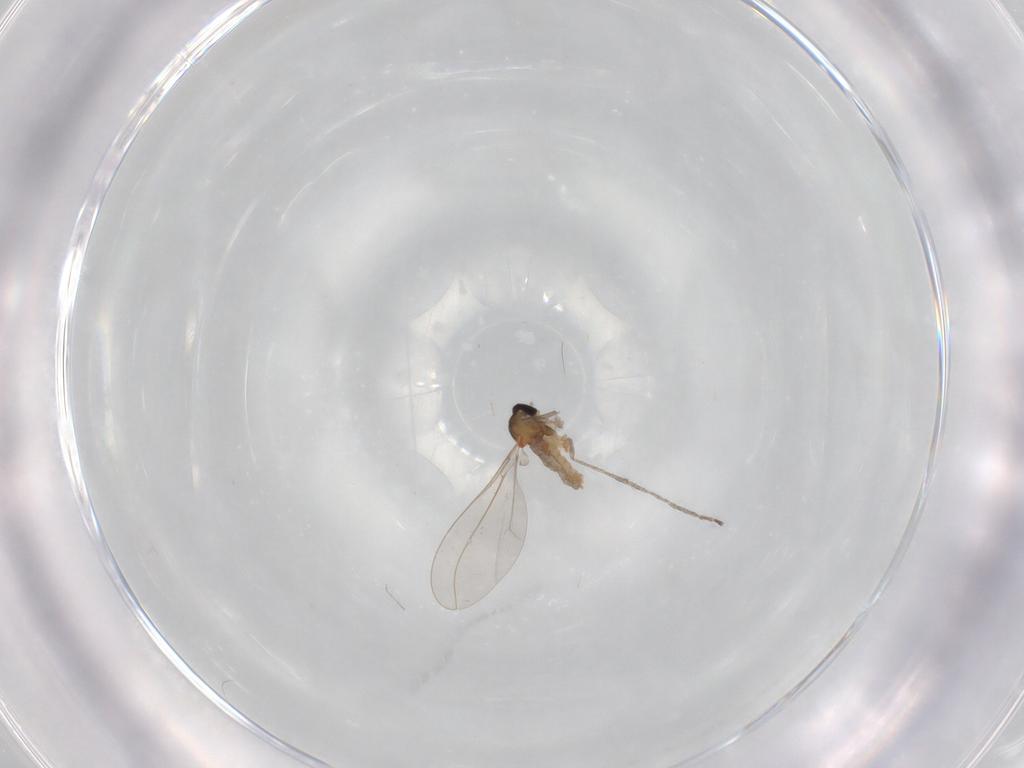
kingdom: Animalia
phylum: Arthropoda
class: Insecta
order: Diptera
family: Cecidomyiidae
